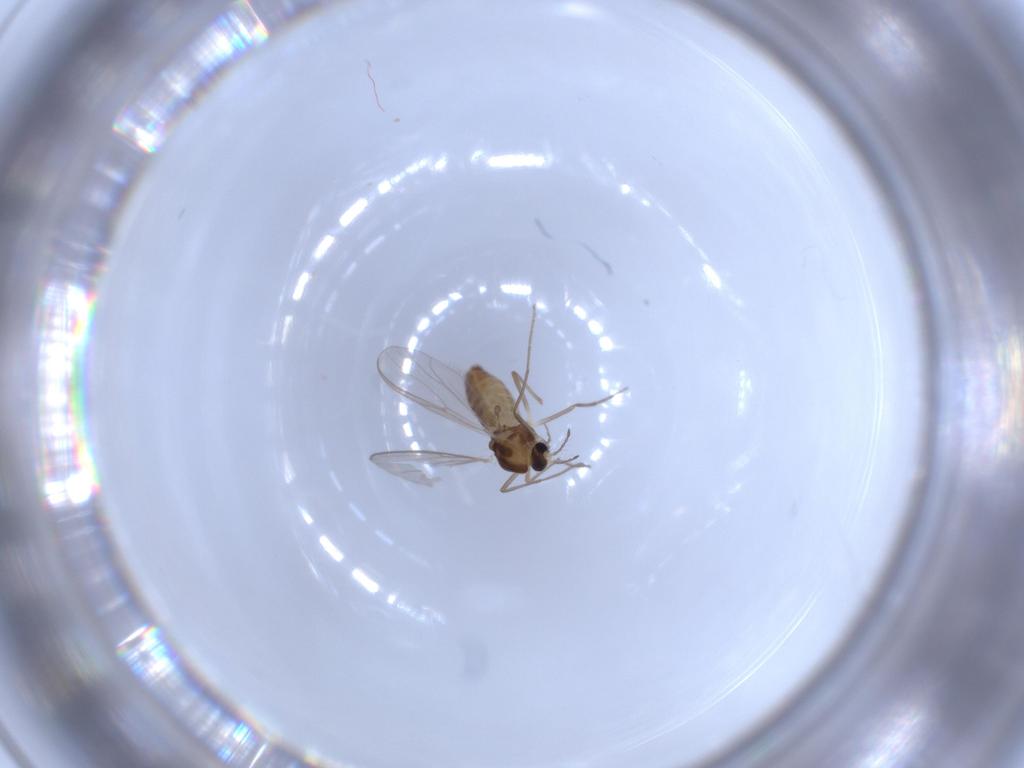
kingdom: Animalia
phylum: Arthropoda
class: Insecta
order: Diptera
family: Chironomidae
